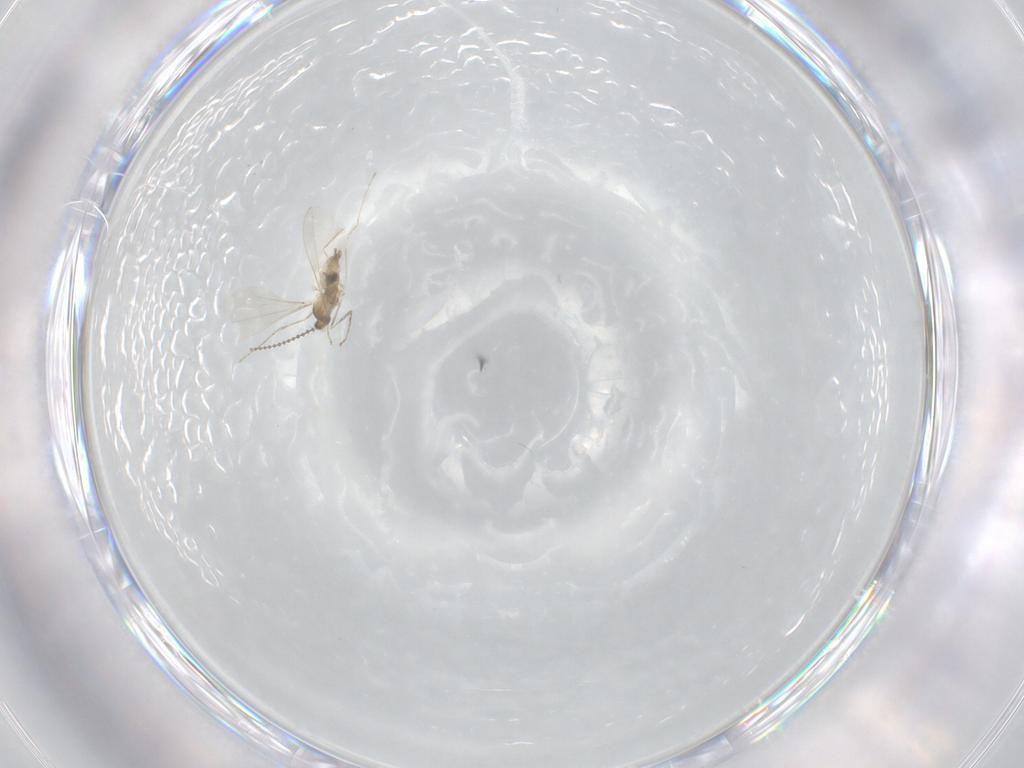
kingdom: Animalia
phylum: Arthropoda
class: Insecta
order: Diptera
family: Cecidomyiidae
